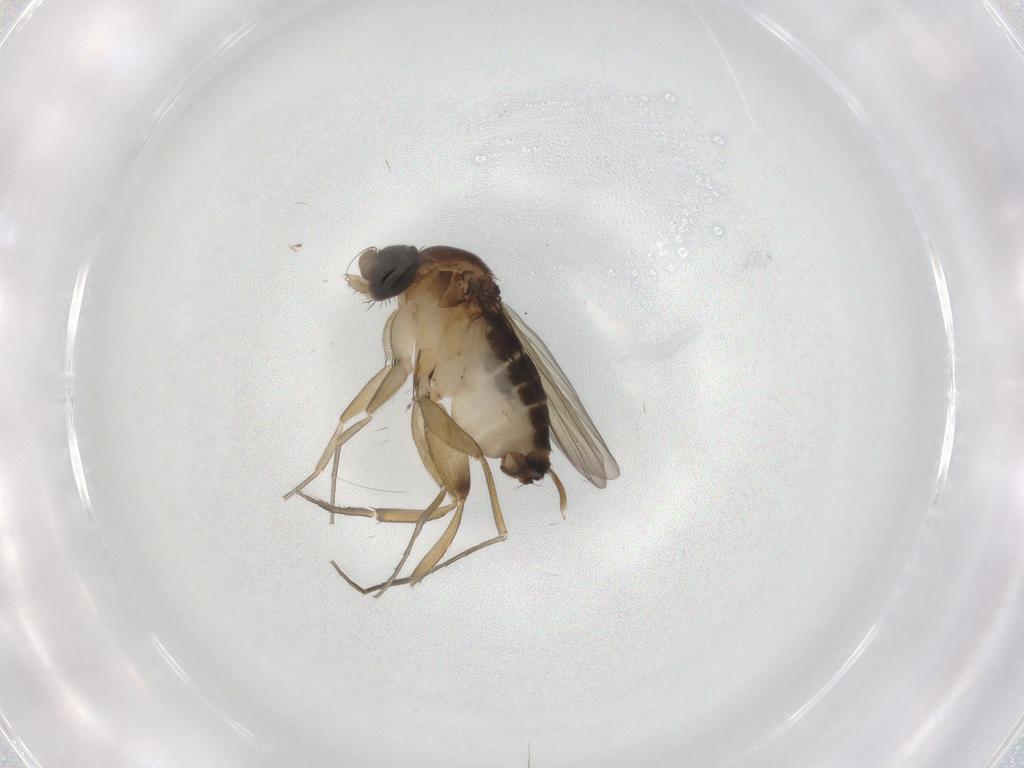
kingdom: Animalia
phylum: Arthropoda
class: Insecta
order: Diptera
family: Phoridae
